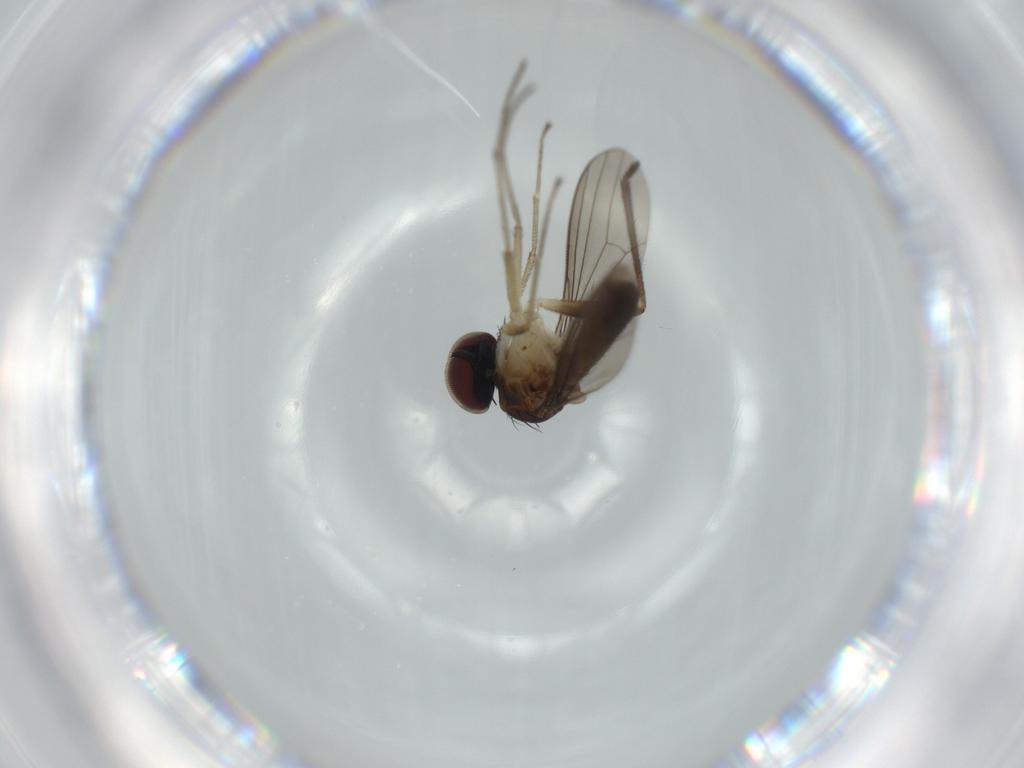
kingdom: Animalia
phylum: Arthropoda
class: Insecta
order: Diptera
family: Dolichopodidae
